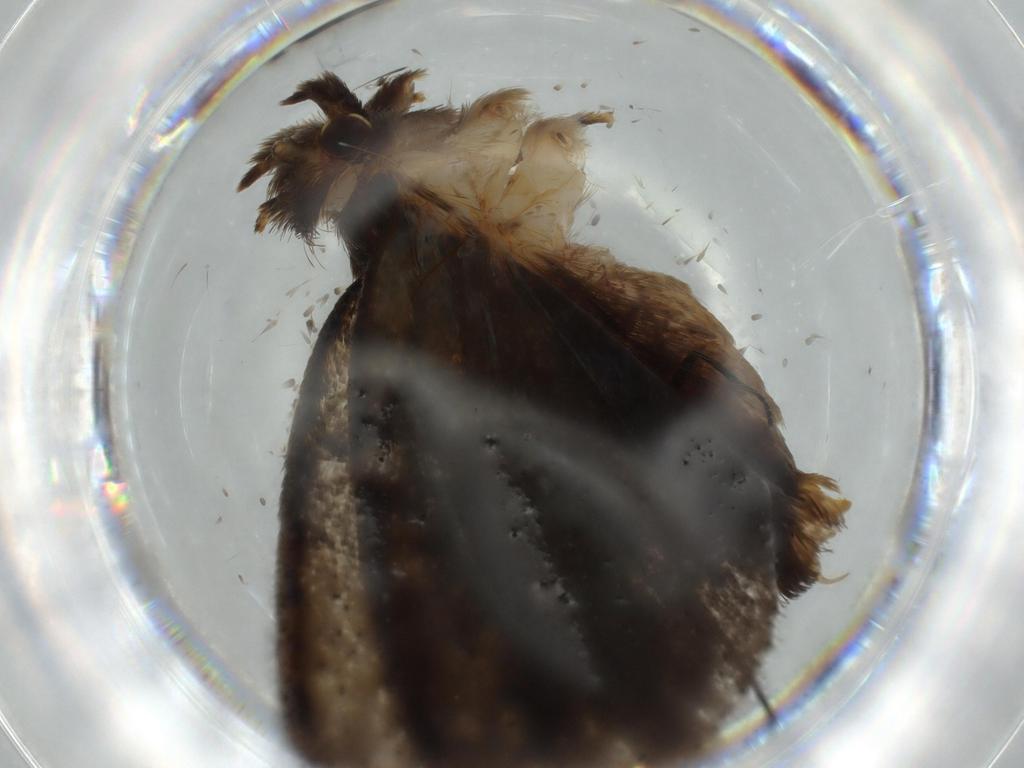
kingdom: Animalia
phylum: Arthropoda
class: Insecta
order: Lepidoptera
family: Tineidae
